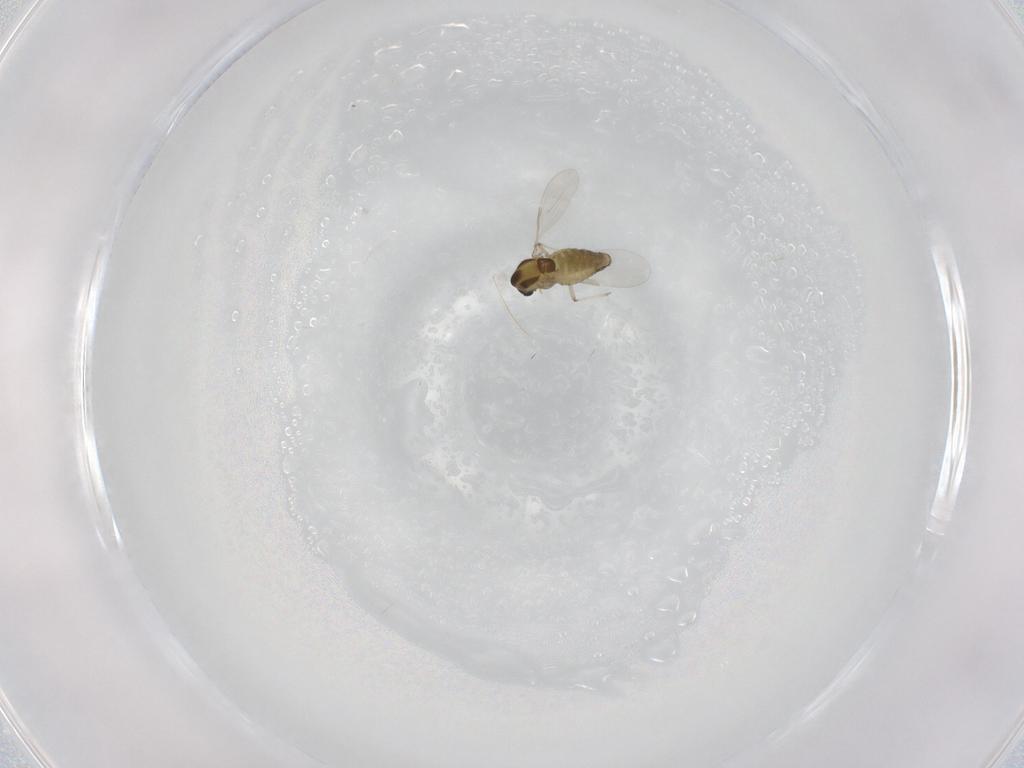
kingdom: Animalia
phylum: Arthropoda
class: Insecta
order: Diptera
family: Chironomidae
